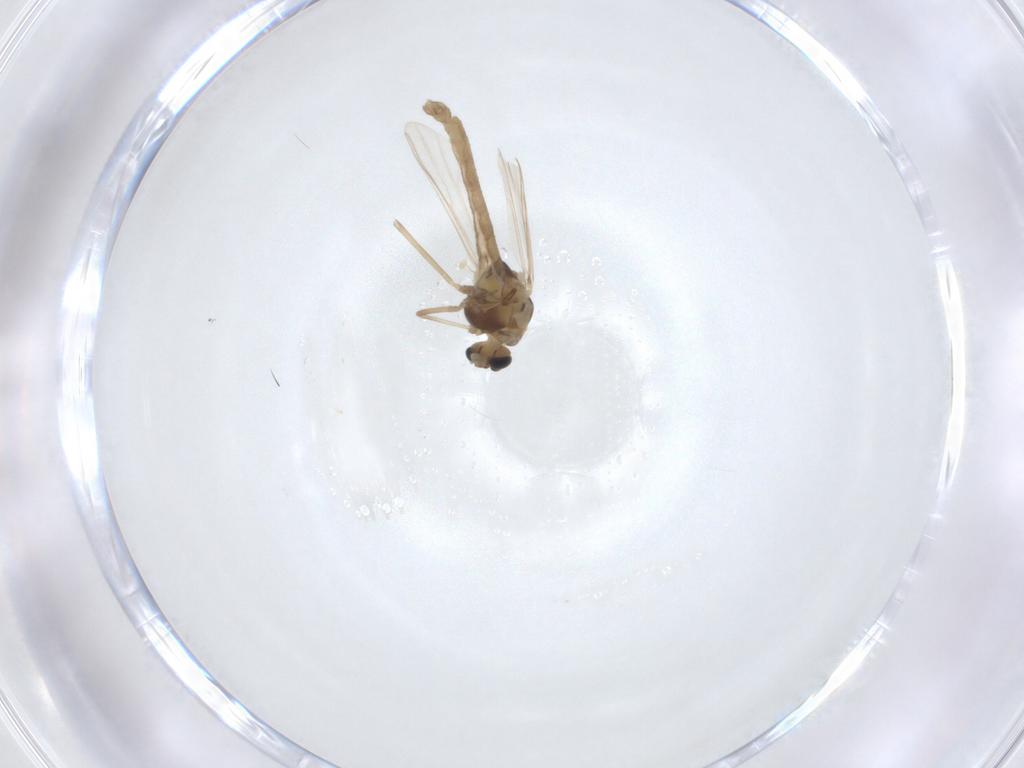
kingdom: Animalia
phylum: Arthropoda
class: Insecta
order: Diptera
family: Chironomidae
